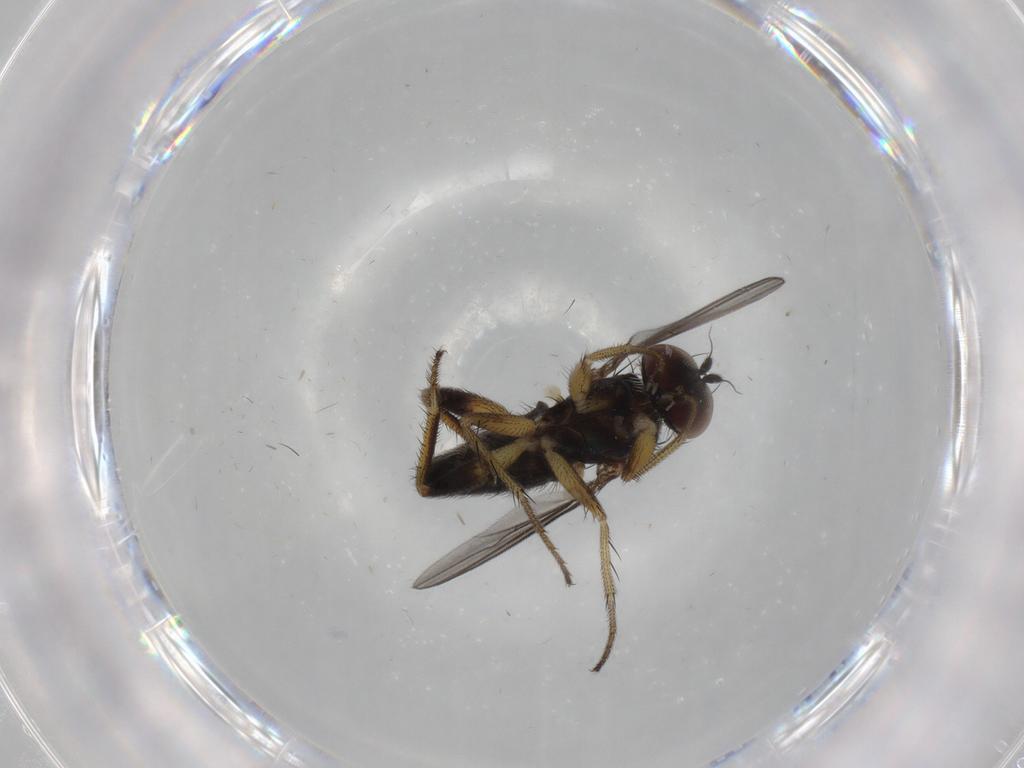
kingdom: Animalia
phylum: Arthropoda
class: Insecta
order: Diptera
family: Dolichopodidae
